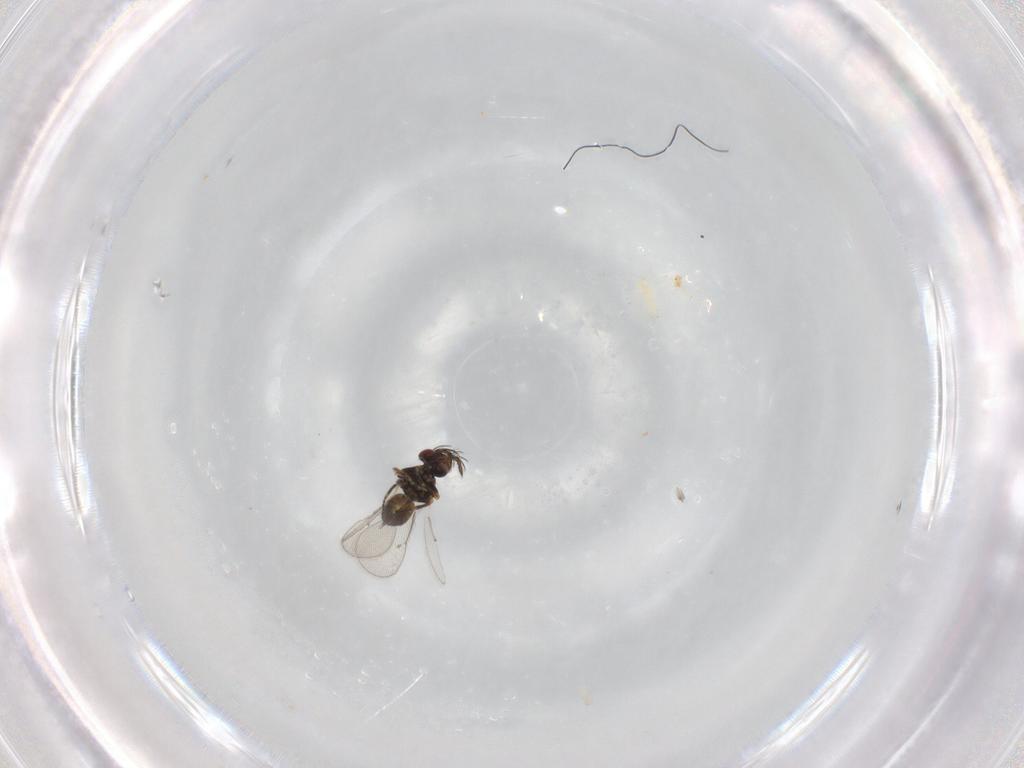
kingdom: Animalia
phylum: Arthropoda
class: Insecta
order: Hymenoptera
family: Eulophidae
